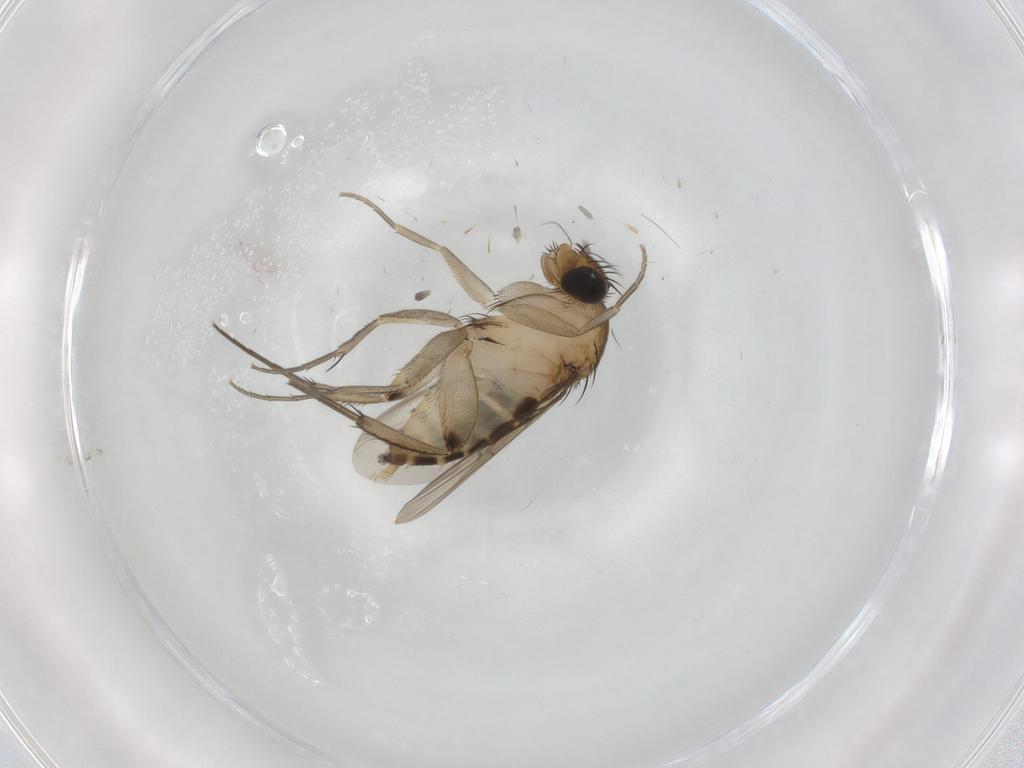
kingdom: Animalia
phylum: Arthropoda
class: Insecta
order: Diptera
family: Phoridae
